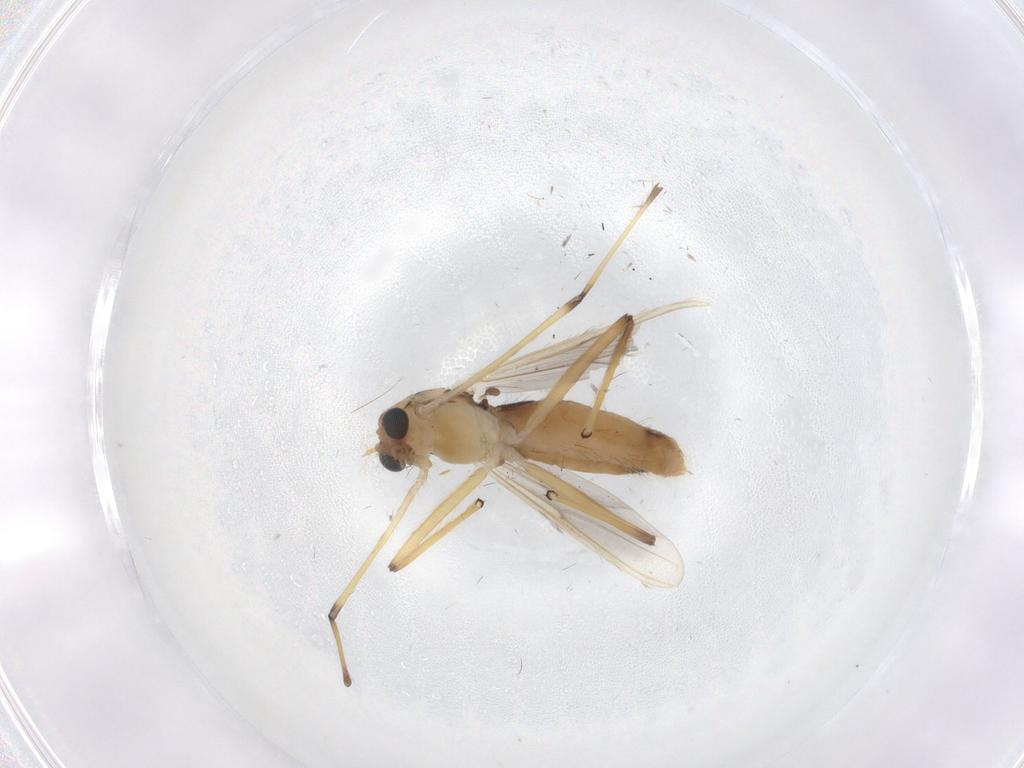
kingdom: Animalia
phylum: Arthropoda
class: Insecta
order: Diptera
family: Chironomidae
